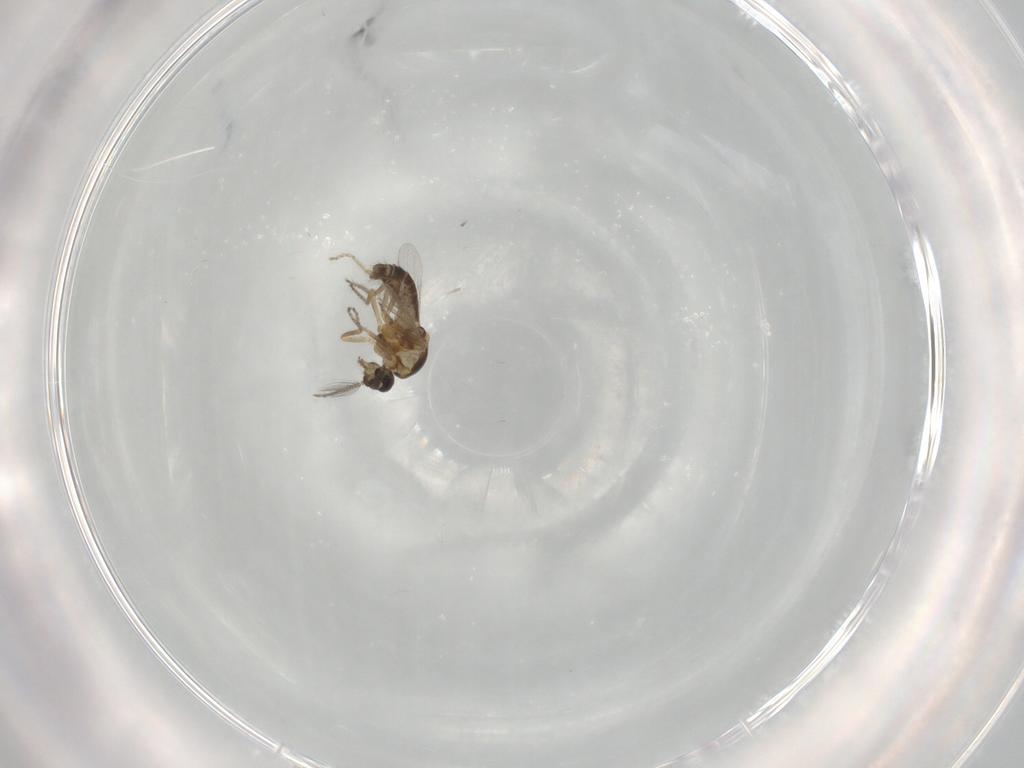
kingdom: Animalia
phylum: Arthropoda
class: Insecta
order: Diptera
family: Ceratopogonidae
